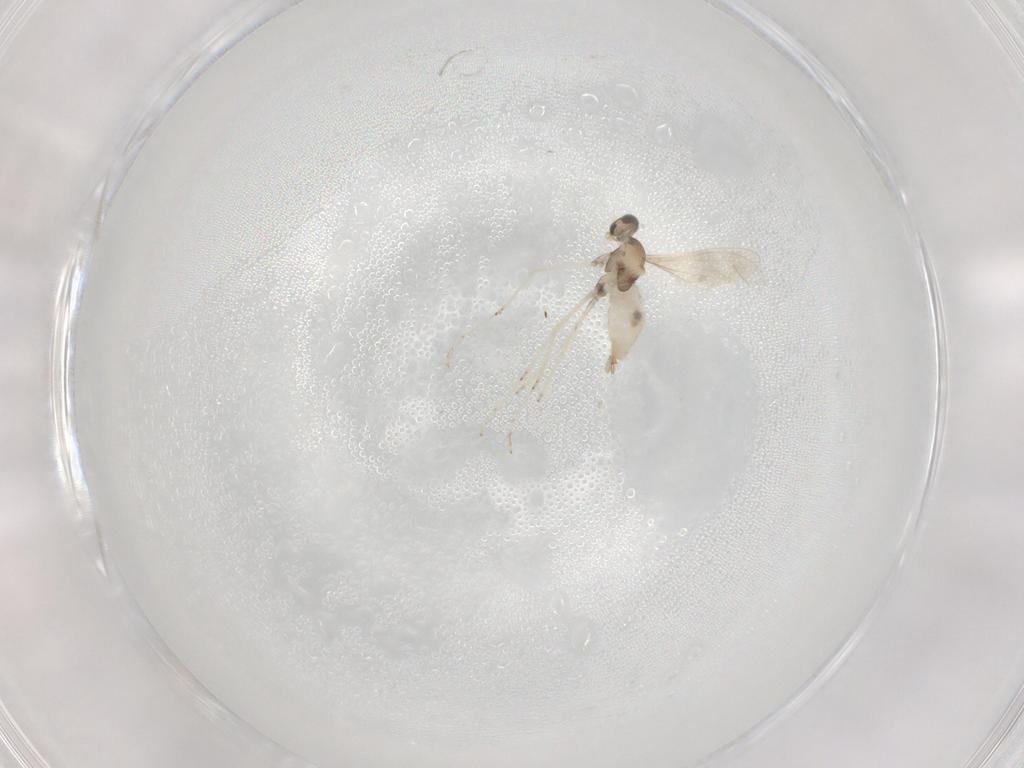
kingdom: Animalia
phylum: Arthropoda
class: Insecta
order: Diptera
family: Cecidomyiidae
